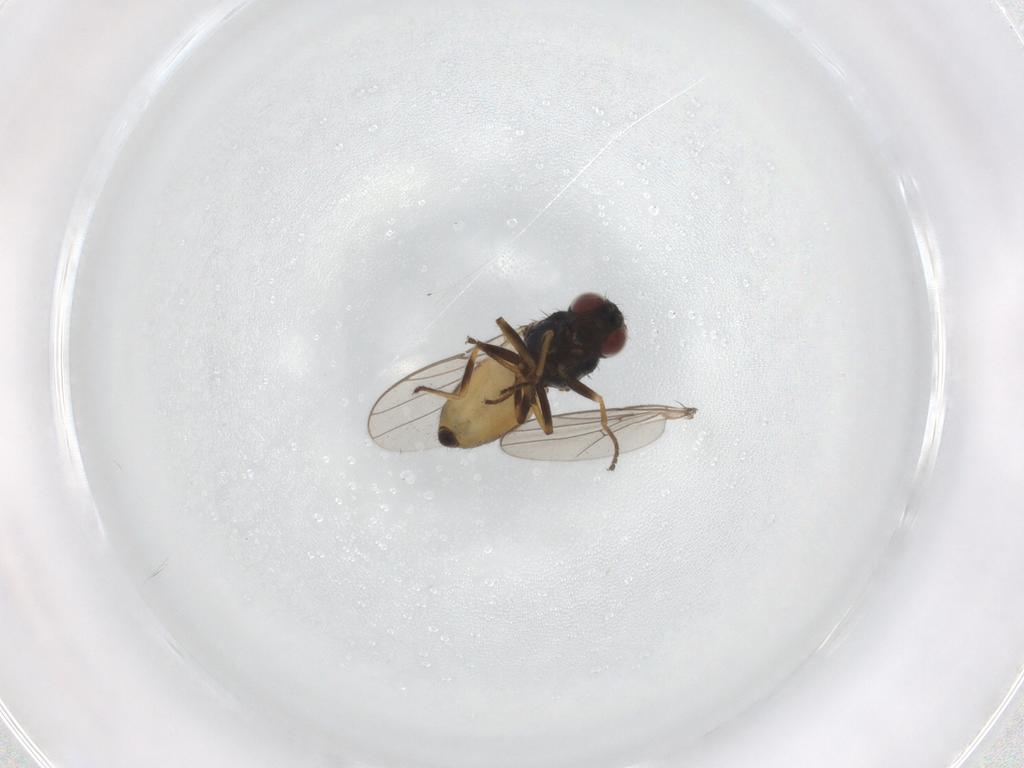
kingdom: Animalia
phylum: Arthropoda
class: Insecta
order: Diptera
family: Chloropidae
